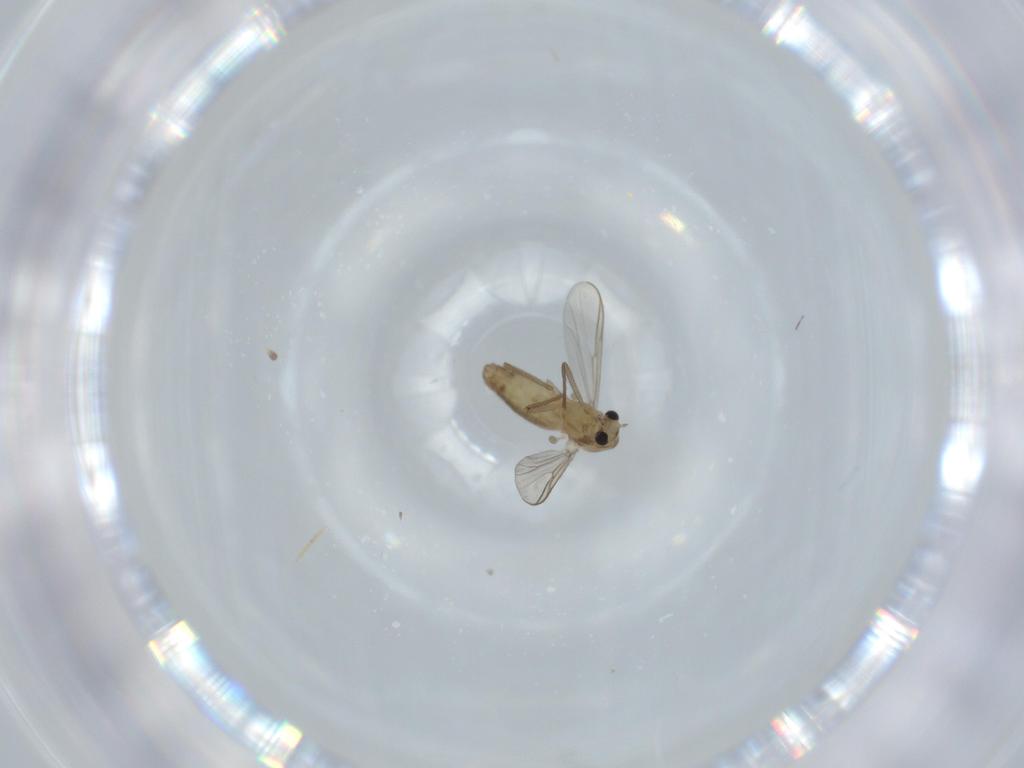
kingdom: Animalia
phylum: Arthropoda
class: Insecta
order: Diptera
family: Chironomidae
